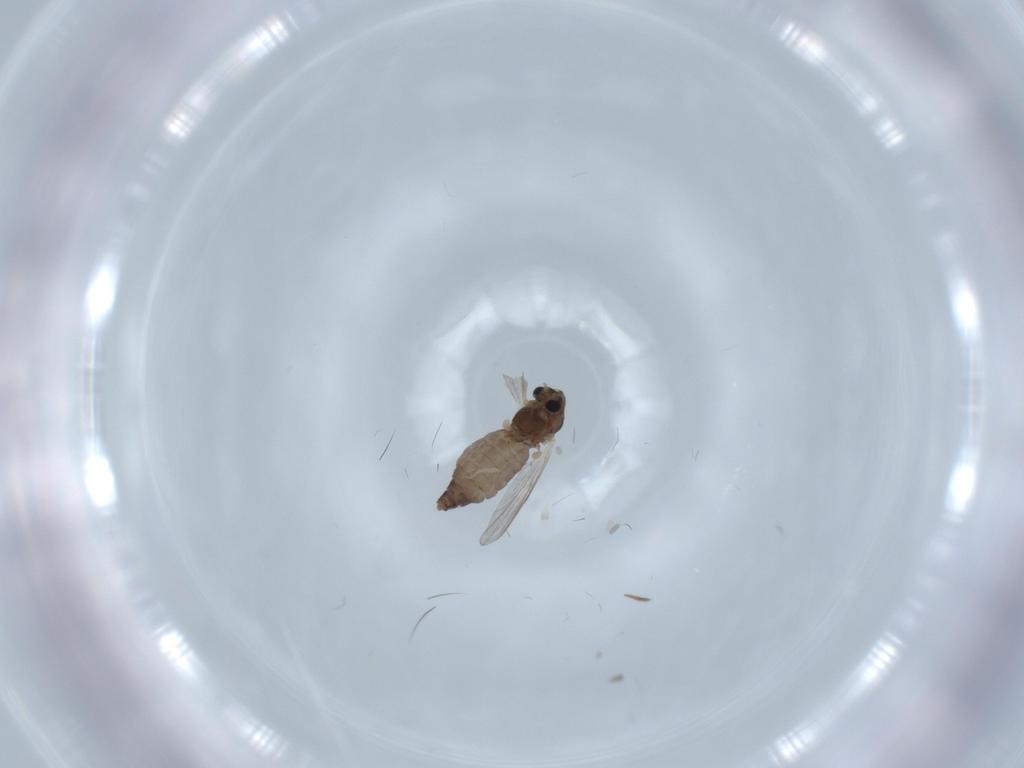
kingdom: Animalia
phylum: Arthropoda
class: Insecta
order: Diptera
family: Chironomidae
